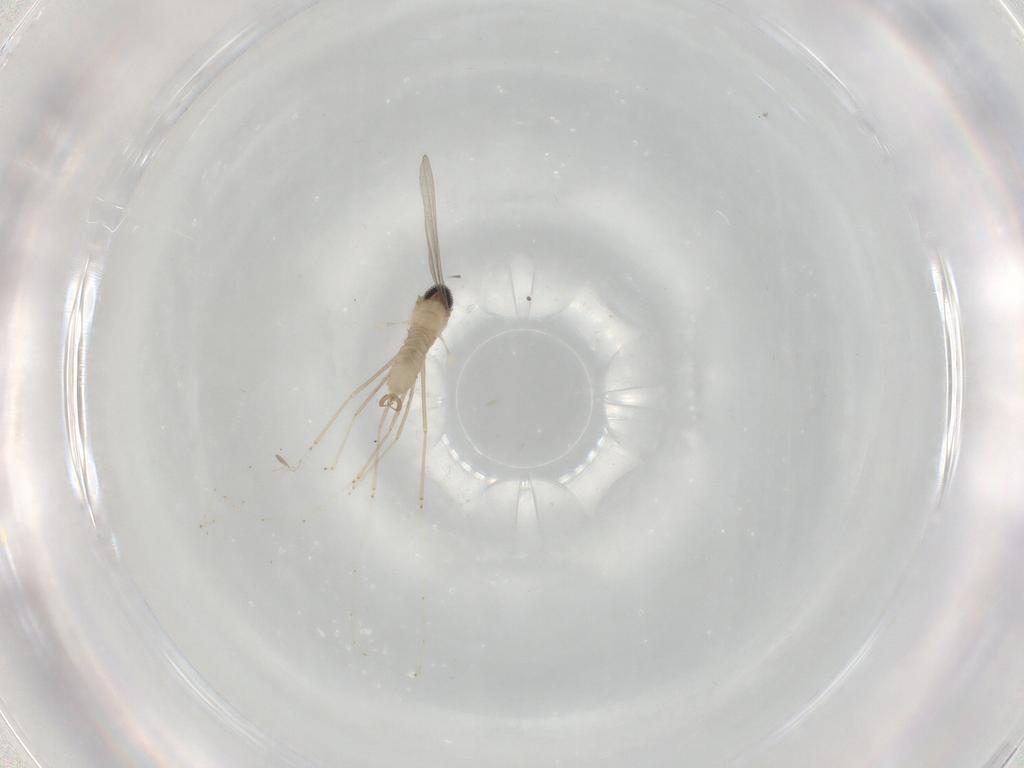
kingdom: Animalia
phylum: Arthropoda
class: Insecta
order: Diptera
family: Cecidomyiidae
